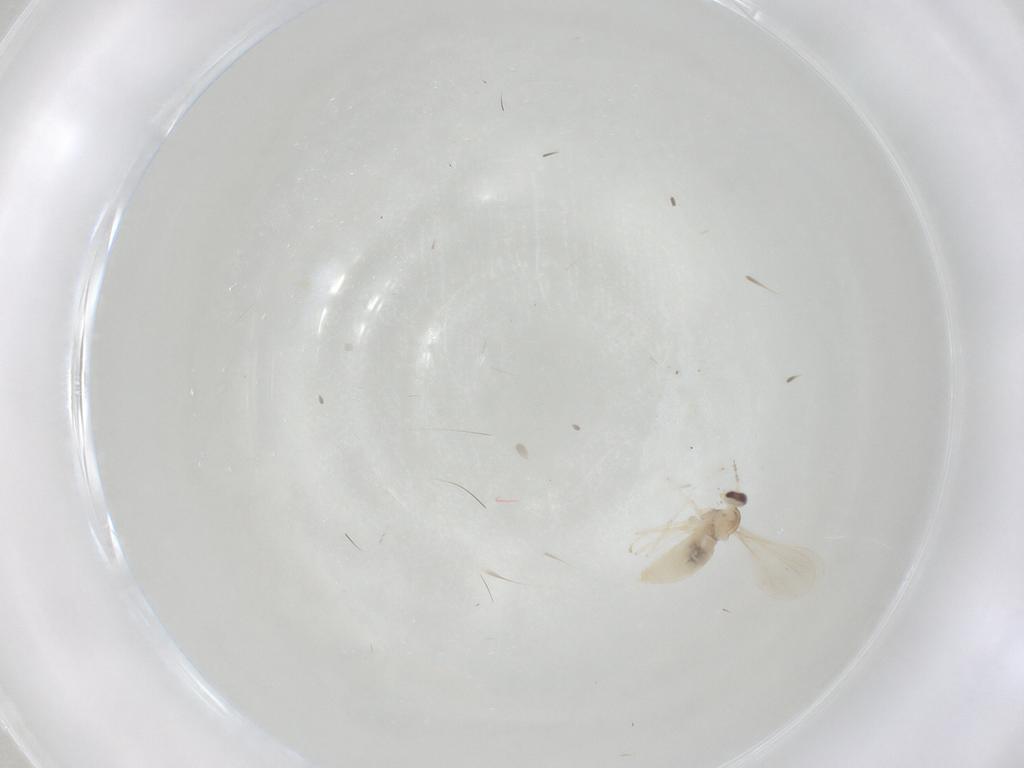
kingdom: Animalia
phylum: Arthropoda
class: Insecta
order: Diptera
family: Cecidomyiidae
